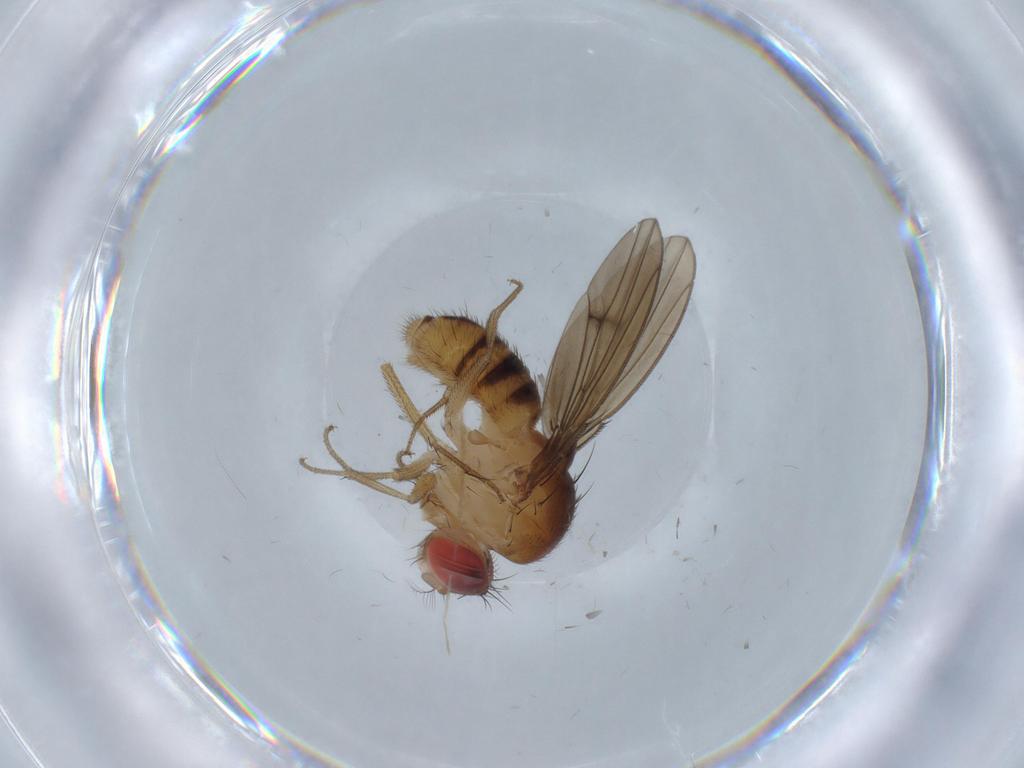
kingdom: Animalia
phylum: Arthropoda
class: Insecta
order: Diptera
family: Drosophilidae
